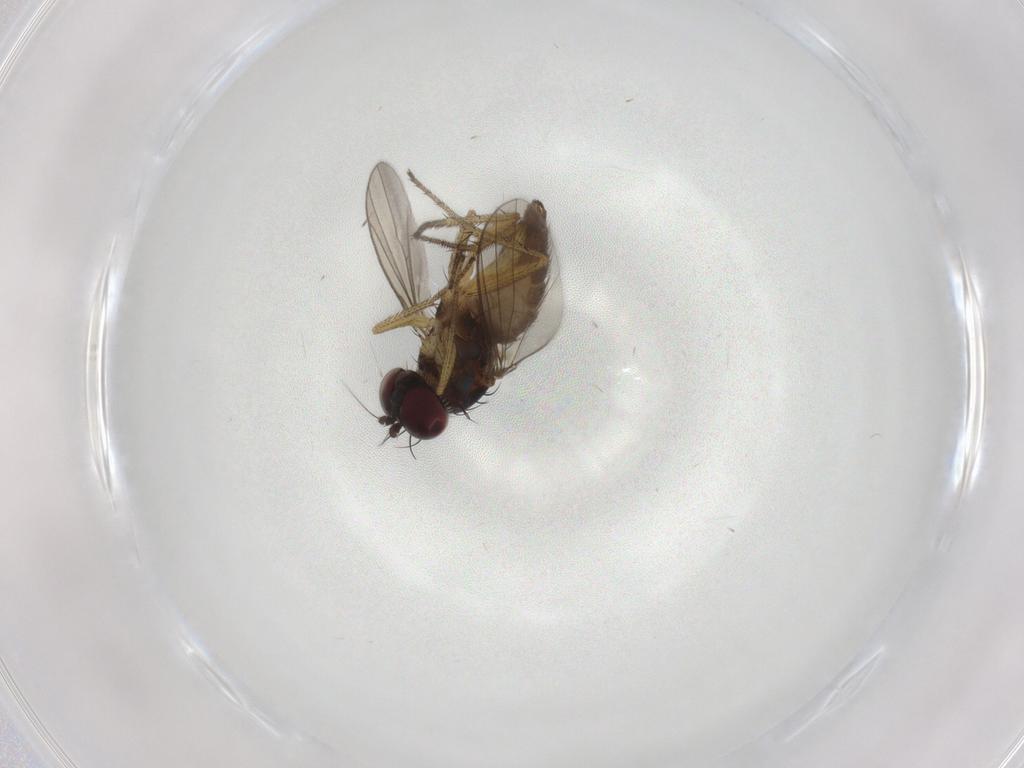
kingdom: Animalia
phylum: Arthropoda
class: Insecta
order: Diptera
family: Dolichopodidae
